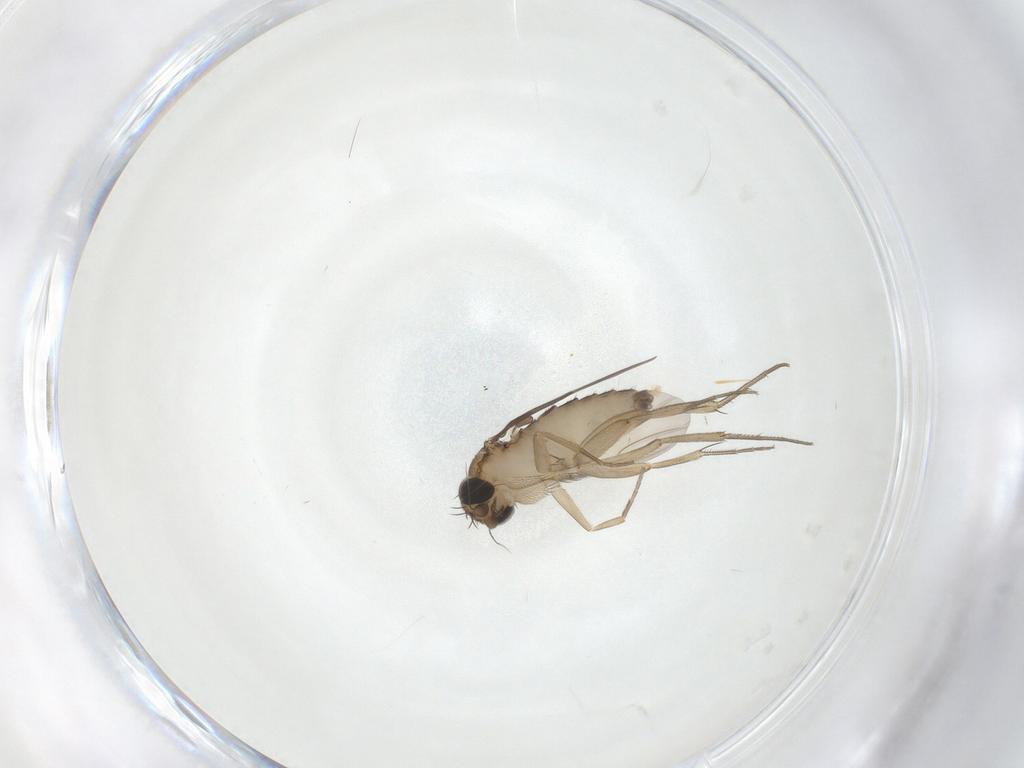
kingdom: Animalia
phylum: Arthropoda
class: Insecta
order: Diptera
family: Phoridae
